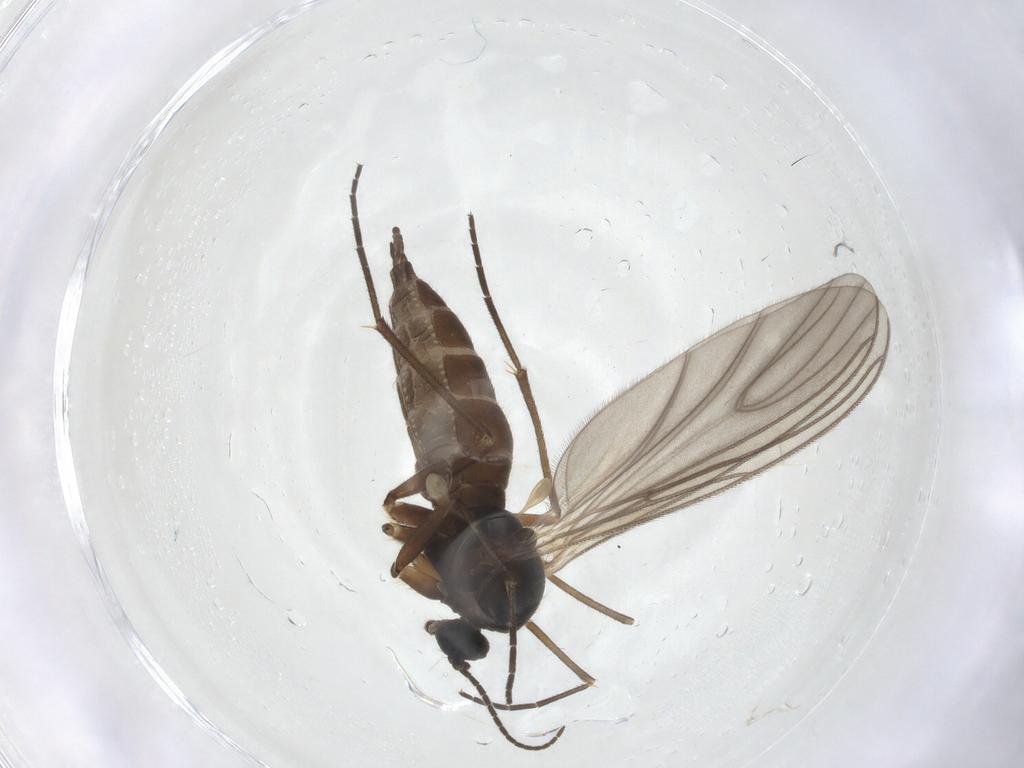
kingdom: Animalia
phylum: Arthropoda
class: Insecta
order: Diptera
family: Sciaridae
